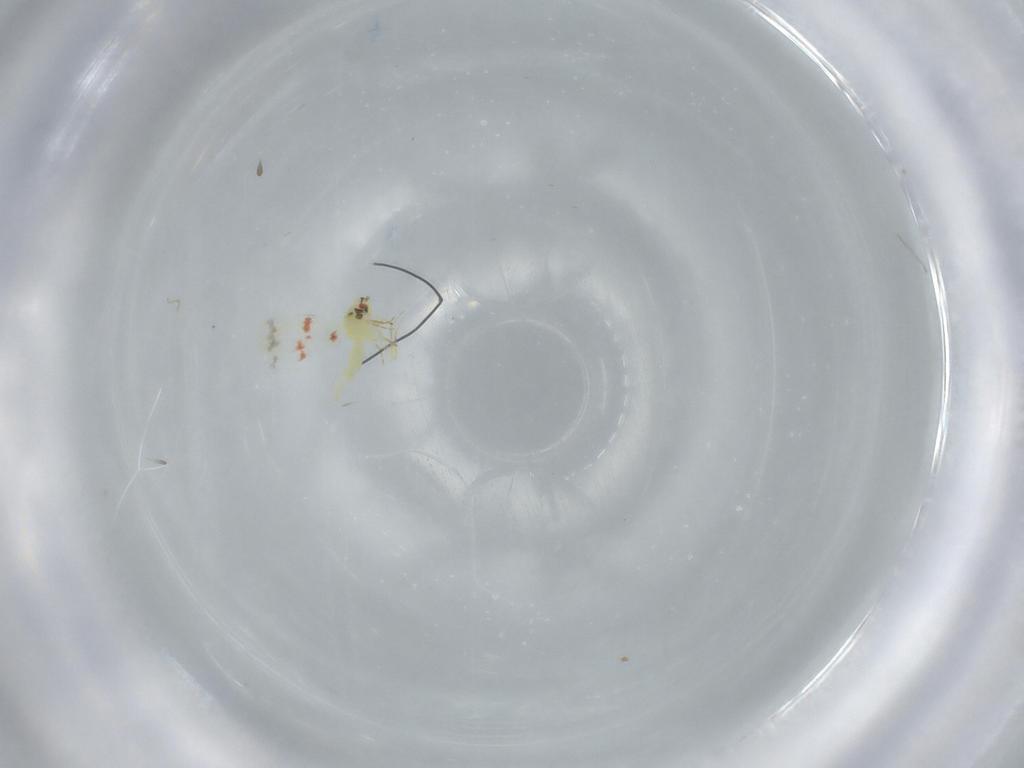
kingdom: Animalia
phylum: Arthropoda
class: Insecta
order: Hemiptera
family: Aleyrodidae
